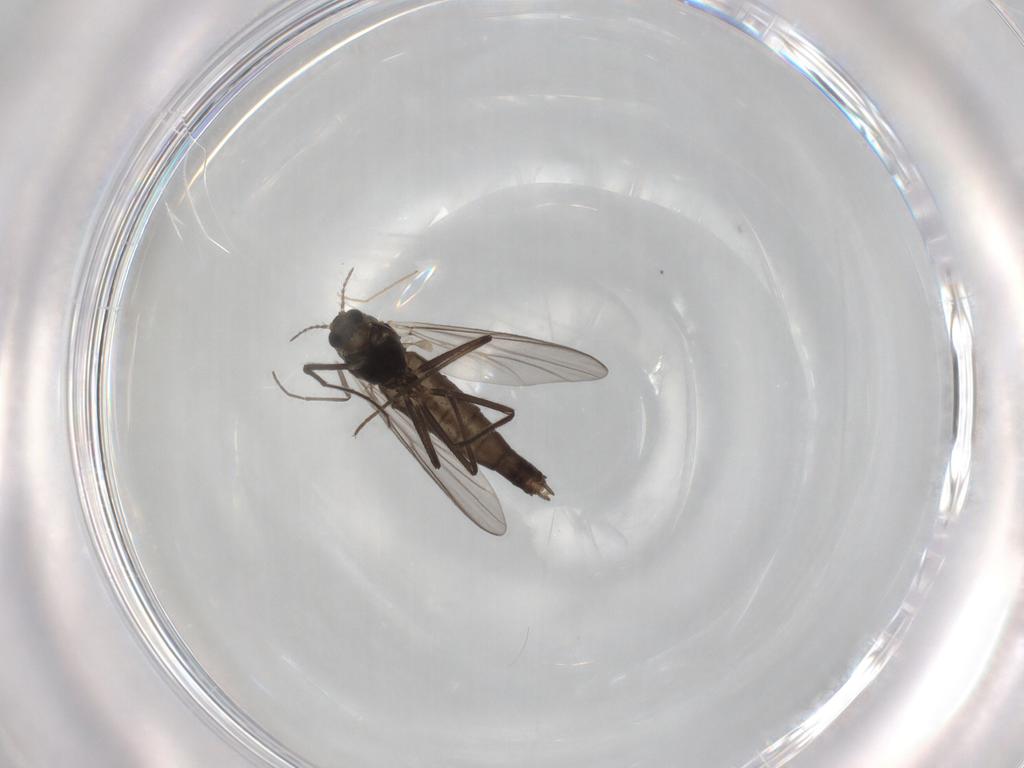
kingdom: Animalia
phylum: Arthropoda
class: Insecta
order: Diptera
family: Chironomidae
